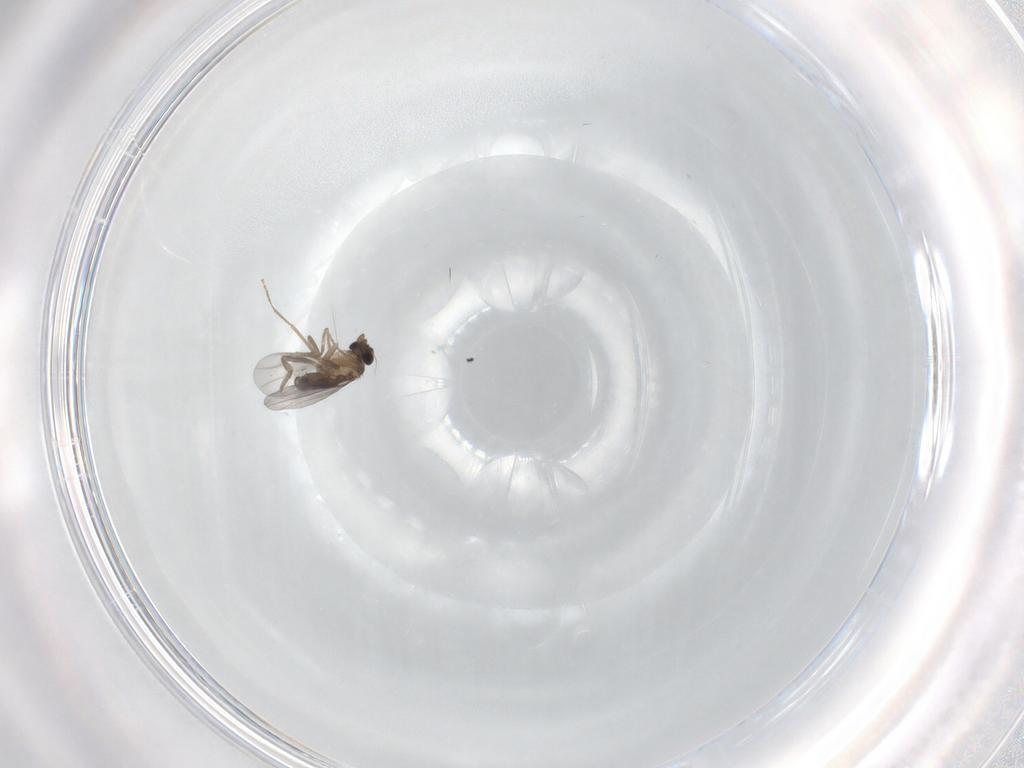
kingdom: Animalia
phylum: Arthropoda
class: Insecta
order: Diptera
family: Chironomidae
